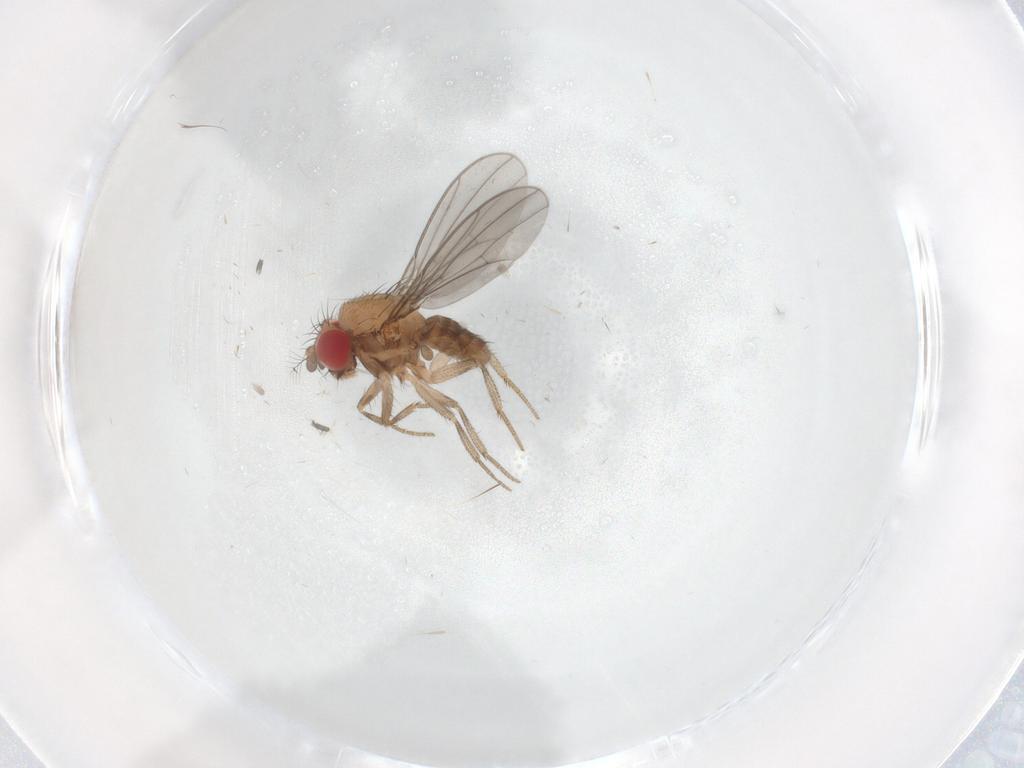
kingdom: Animalia
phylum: Arthropoda
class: Insecta
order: Diptera
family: Drosophilidae
